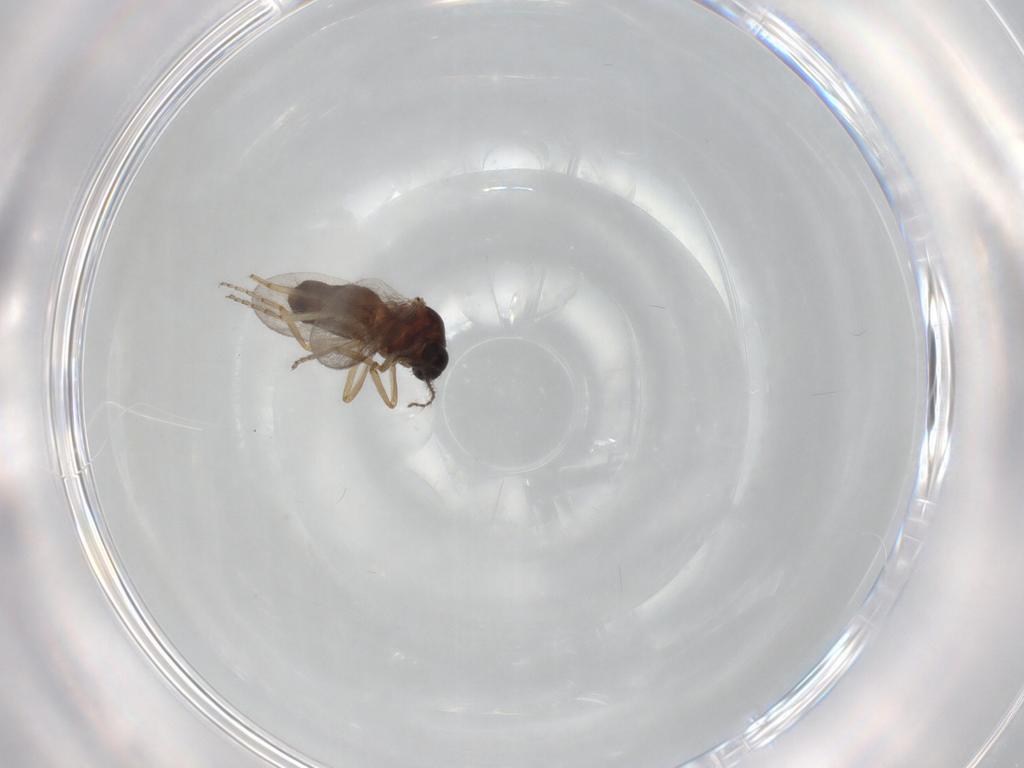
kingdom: Animalia
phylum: Arthropoda
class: Insecta
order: Diptera
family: Ceratopogonidae
